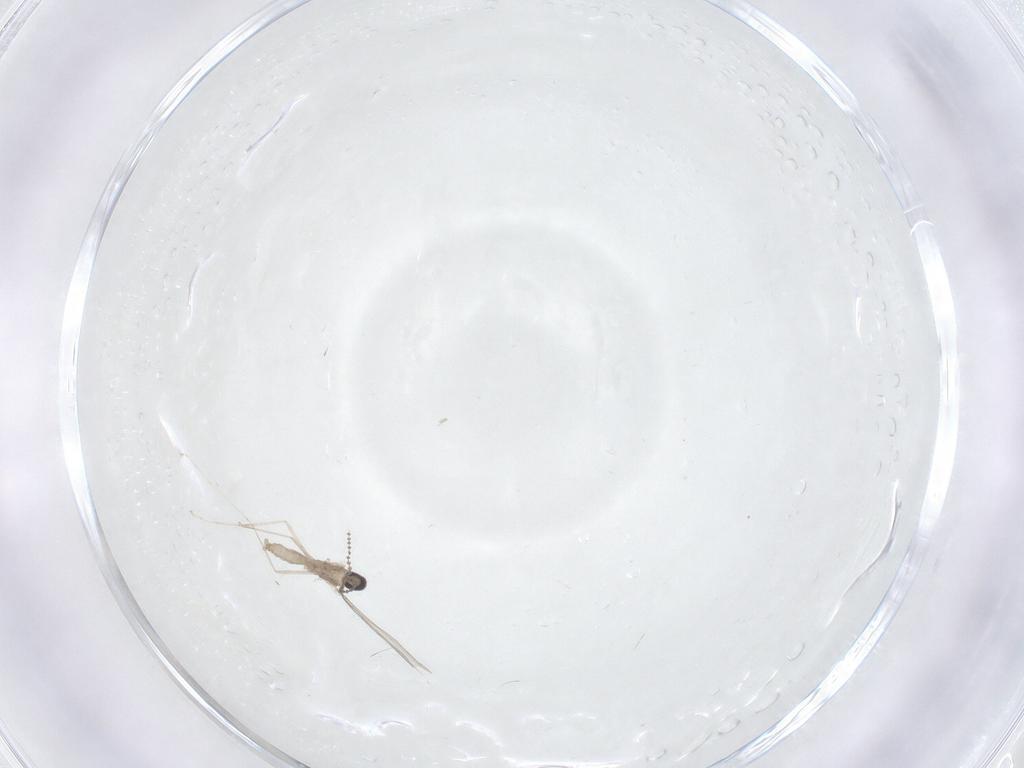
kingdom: Animalia
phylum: Arthropoda
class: Insecta
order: Diptera
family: Cecidomyiidae
